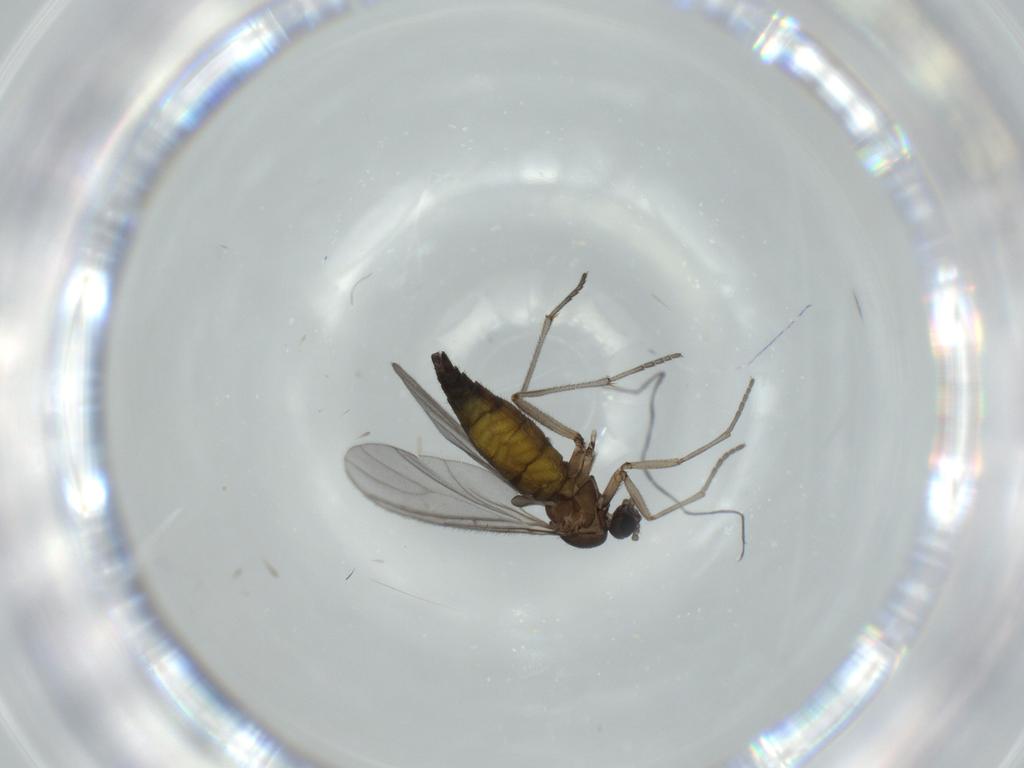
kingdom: Animalia
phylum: Arthropoda
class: Insecta
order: Diptera
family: Sciaridae
